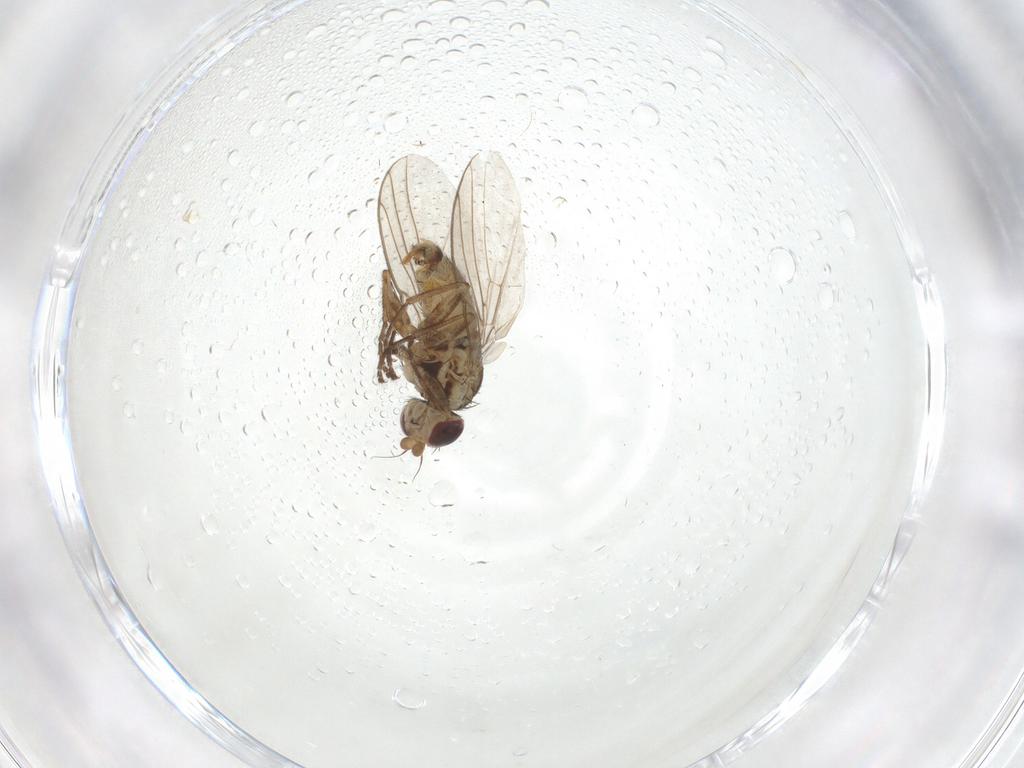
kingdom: Animalia
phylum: Arthropoda
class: Insecta
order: Diptera
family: Agromyzidae
